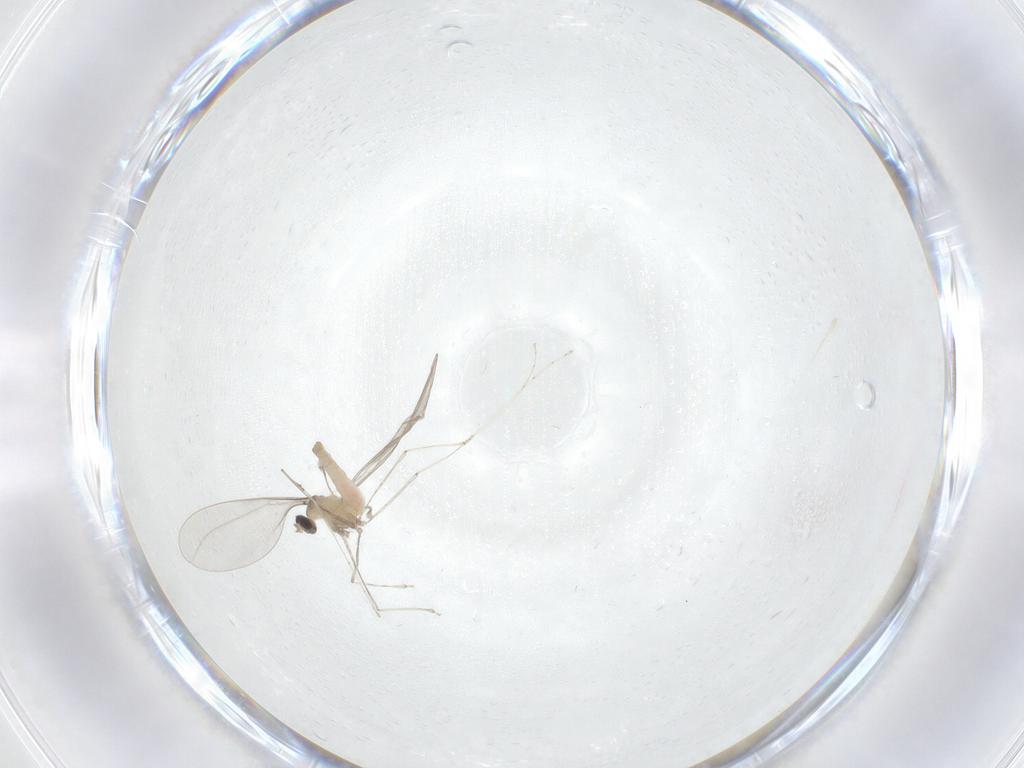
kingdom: Animalia
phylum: Arthropoda
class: Insecta
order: Diptera
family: Cecidomyiidae
